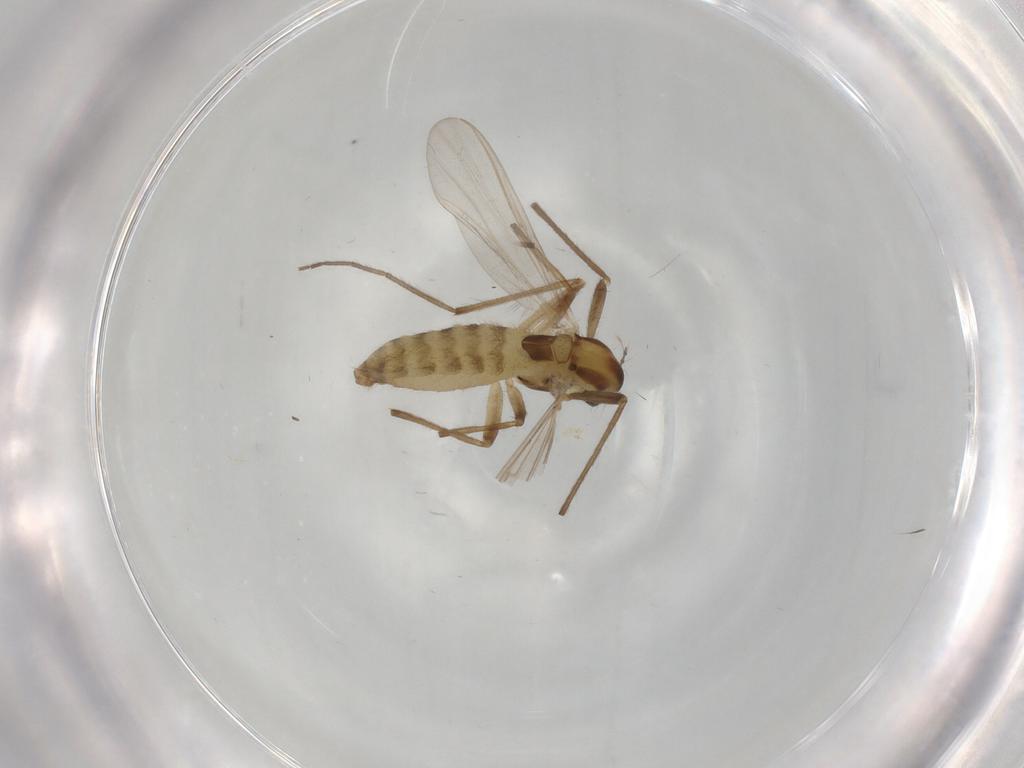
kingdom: Animalia
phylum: Arthropoda
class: Insecta
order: Diptera
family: Chironomidae
